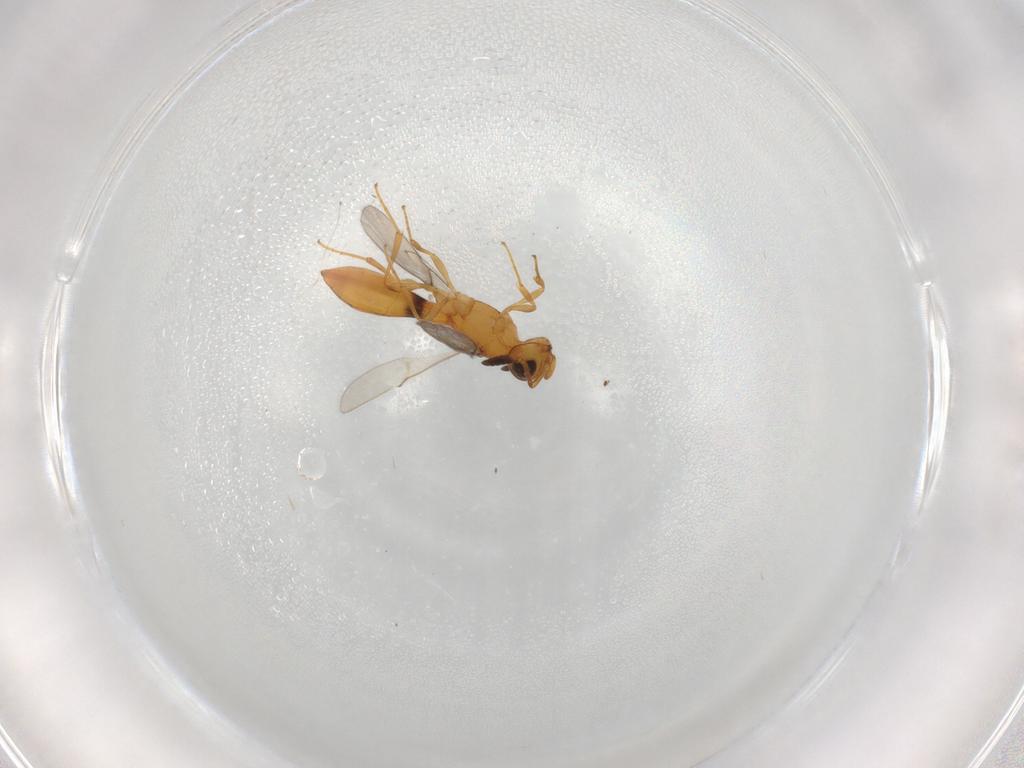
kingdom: Animalia
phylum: Arthropoda
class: Insecta
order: Hymenoptera
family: Scelionidae
